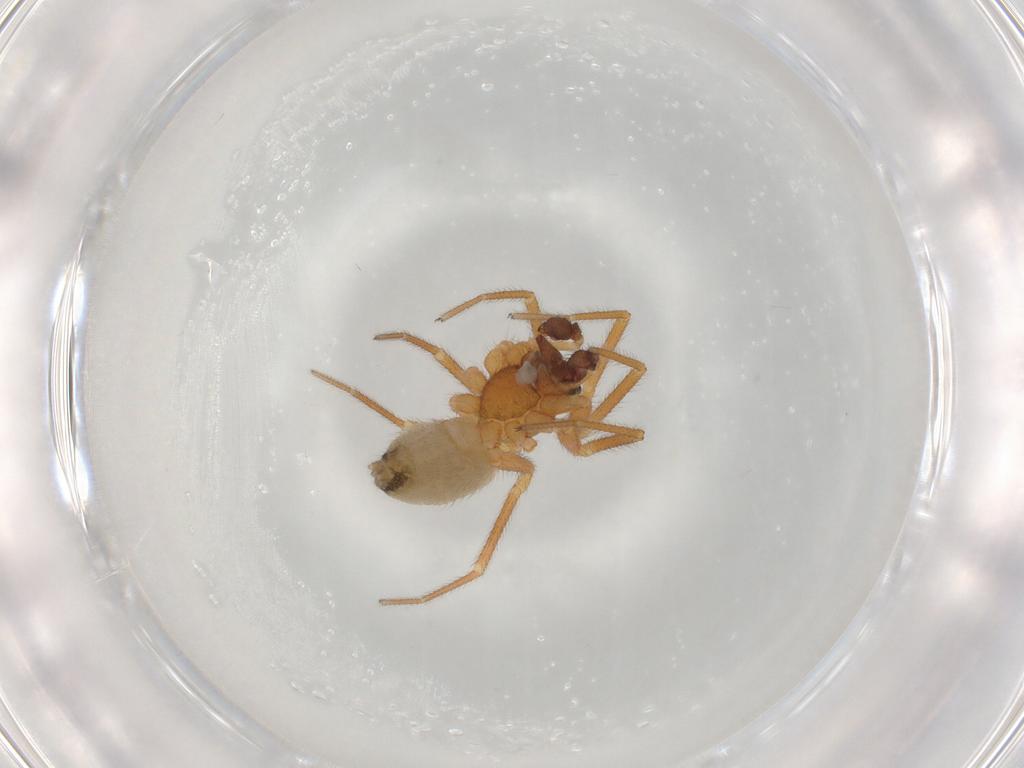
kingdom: Animalia
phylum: Arthropoda
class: Arachnida
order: Araneae
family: Linyphiidae
